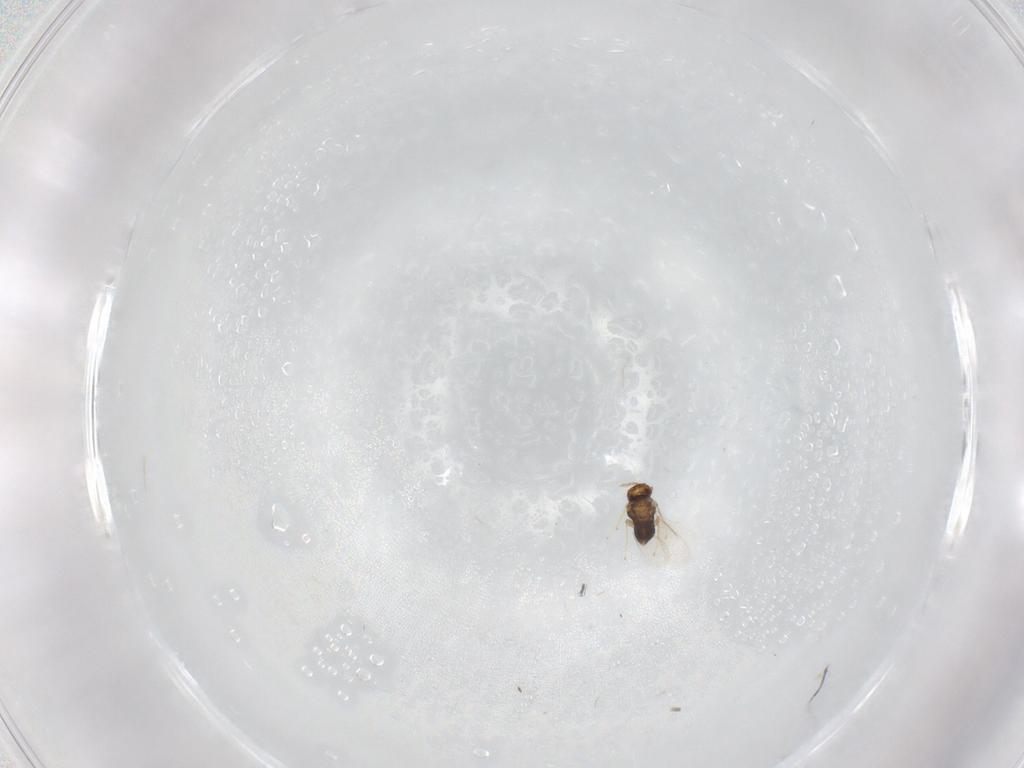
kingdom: Animalia
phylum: Arthropoda
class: Insecta
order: Hymenoptera
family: Aphelinidae
